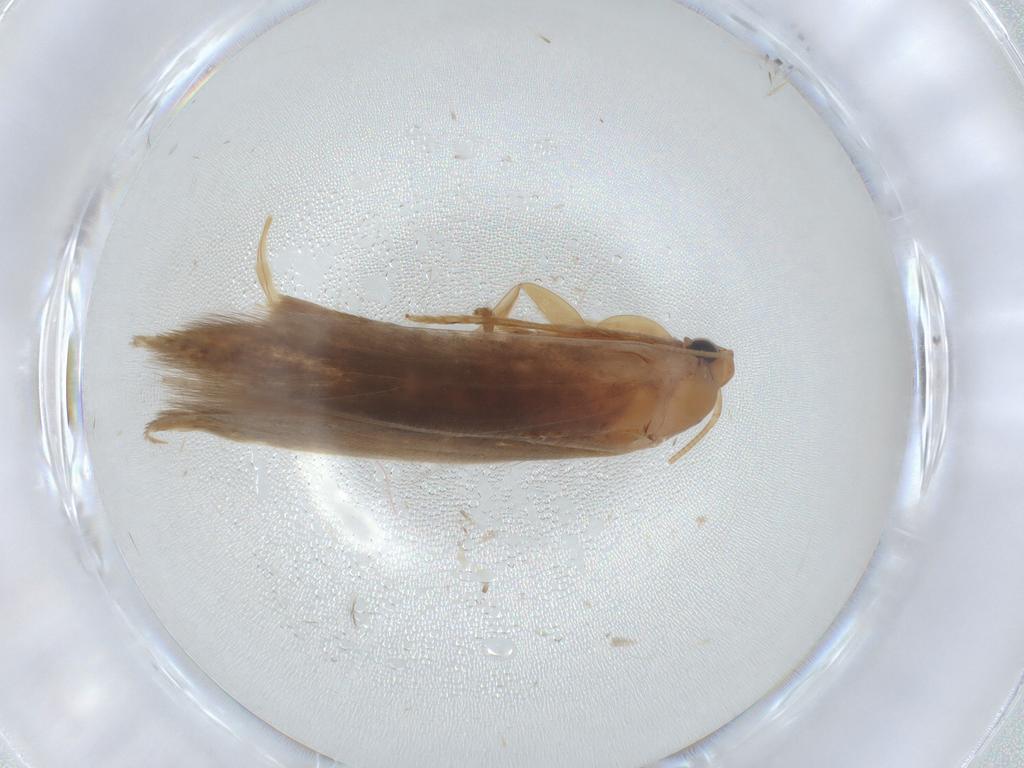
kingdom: Animalia
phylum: Arthropoda
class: Insecta
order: Lepidoptera
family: Tineidae
